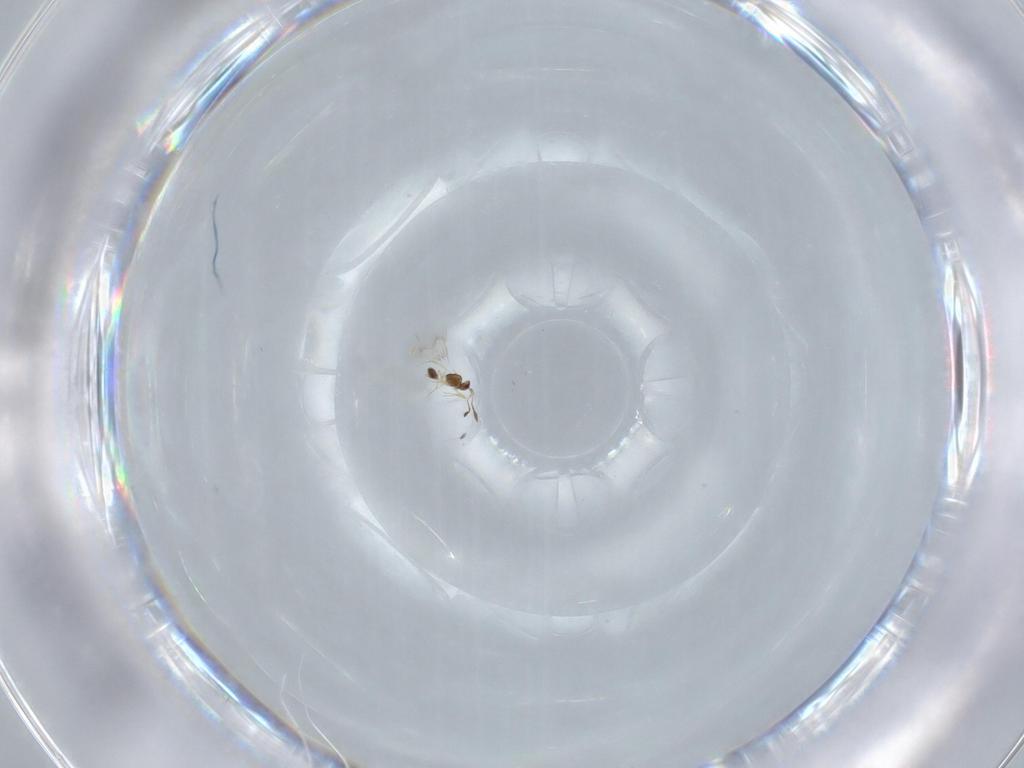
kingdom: Animalia
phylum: Arthropoda
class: Insecta
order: Hymenoptera
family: Mymarommatidae
